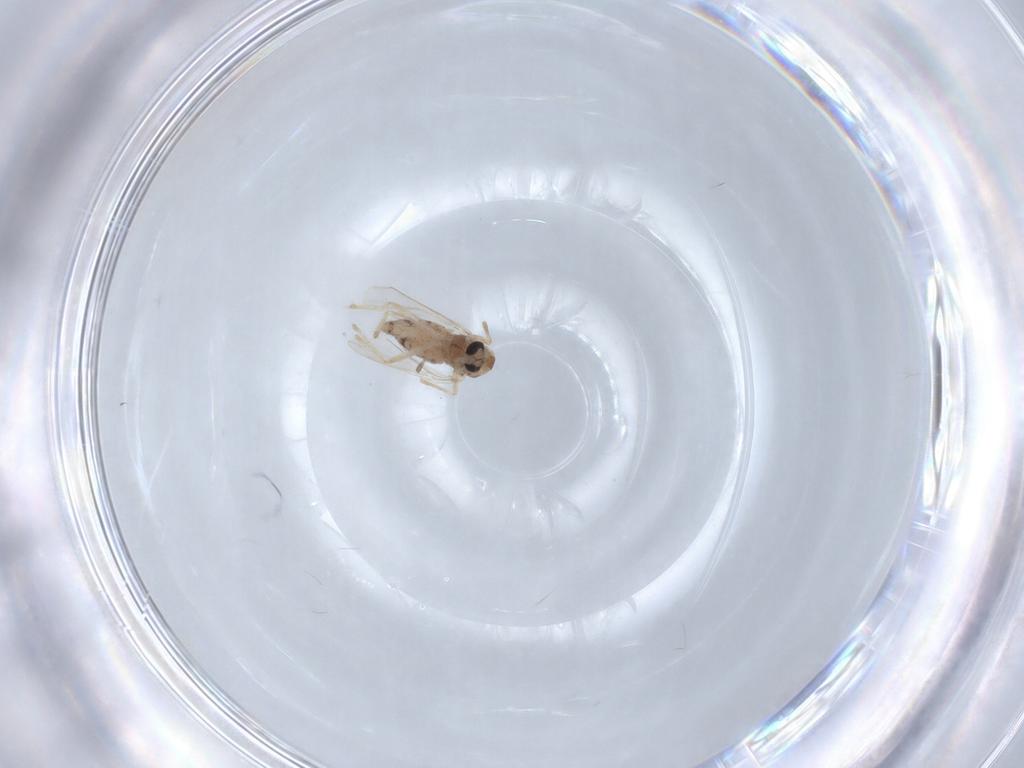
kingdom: Animalia
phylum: Arthropoda
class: Insecta
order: Diptera
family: Chironomidae
